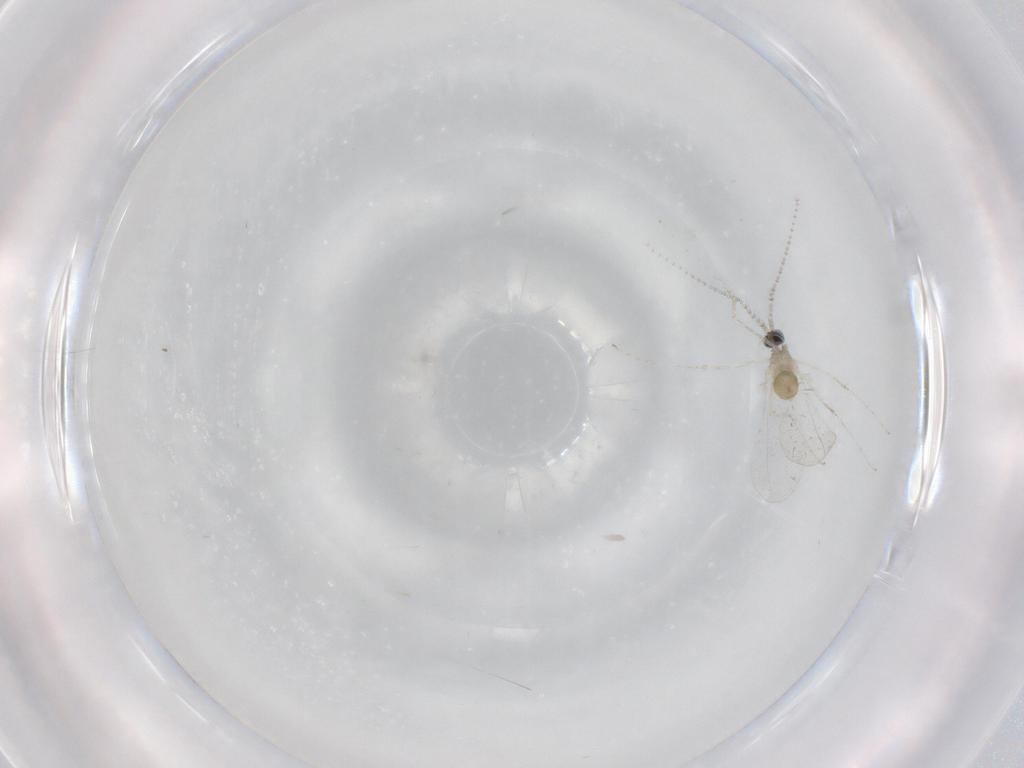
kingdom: Animalia
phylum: Arthropoda
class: Insecta
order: Diptera
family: Cecidomyiidae
